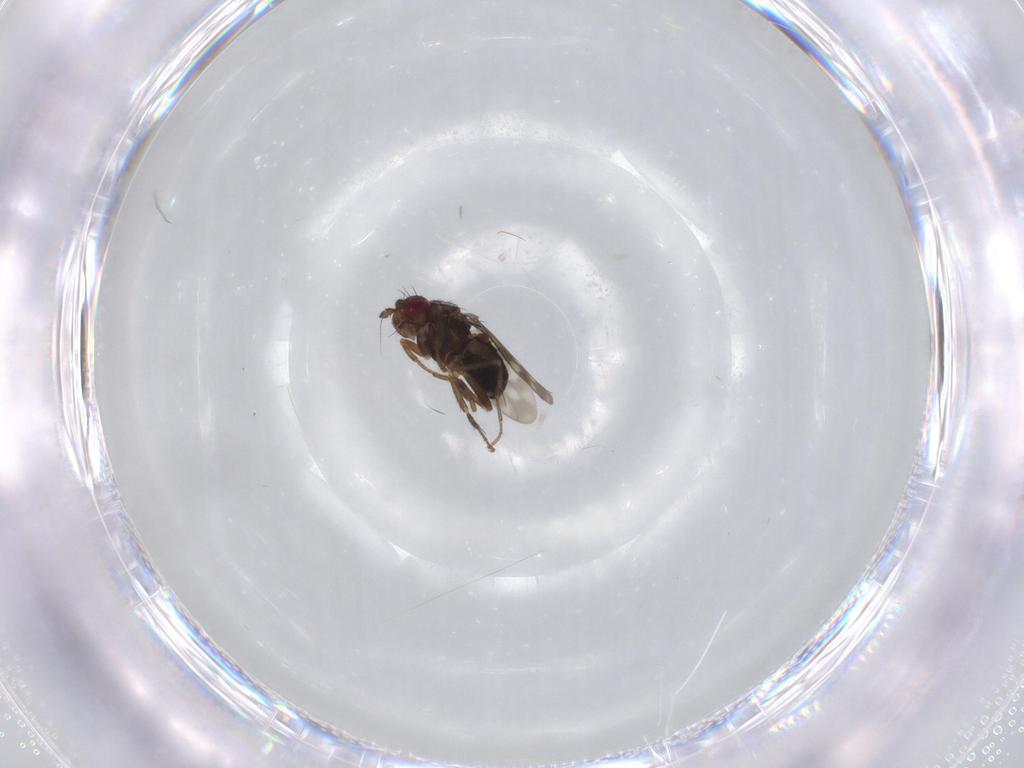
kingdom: Animalia
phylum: Arthropoda
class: Insecta
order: Diptera
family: Sphaeroceridae
